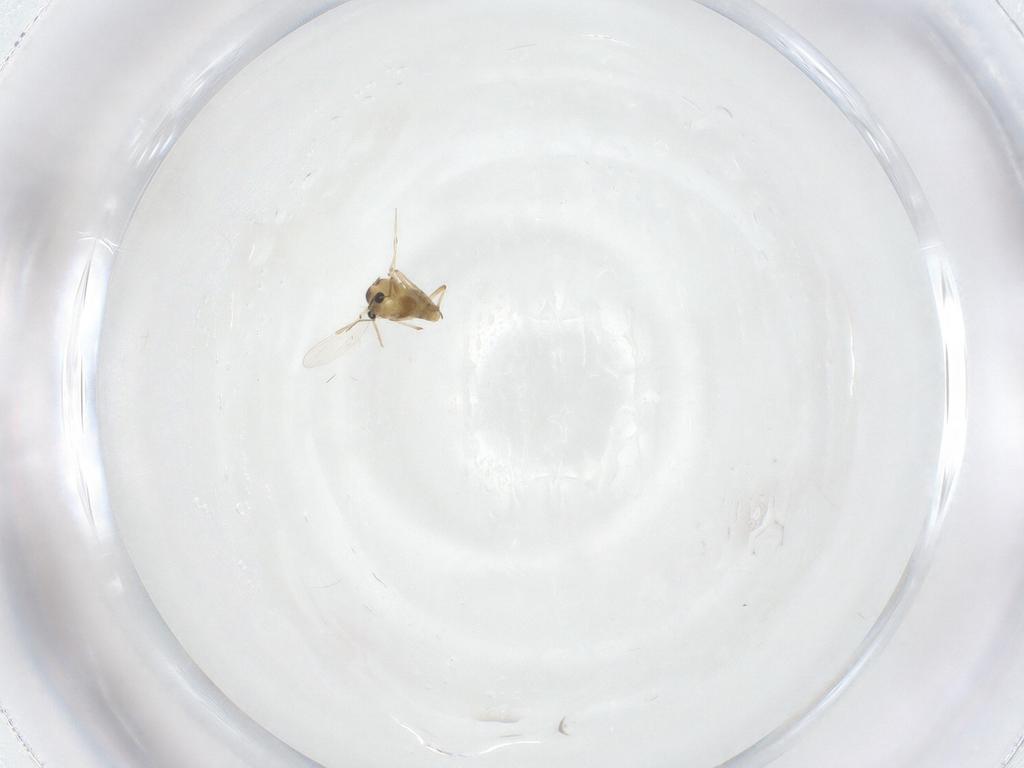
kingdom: Animalia
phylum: Arthropoda
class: Insecta
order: Diptera
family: Chironomidae
